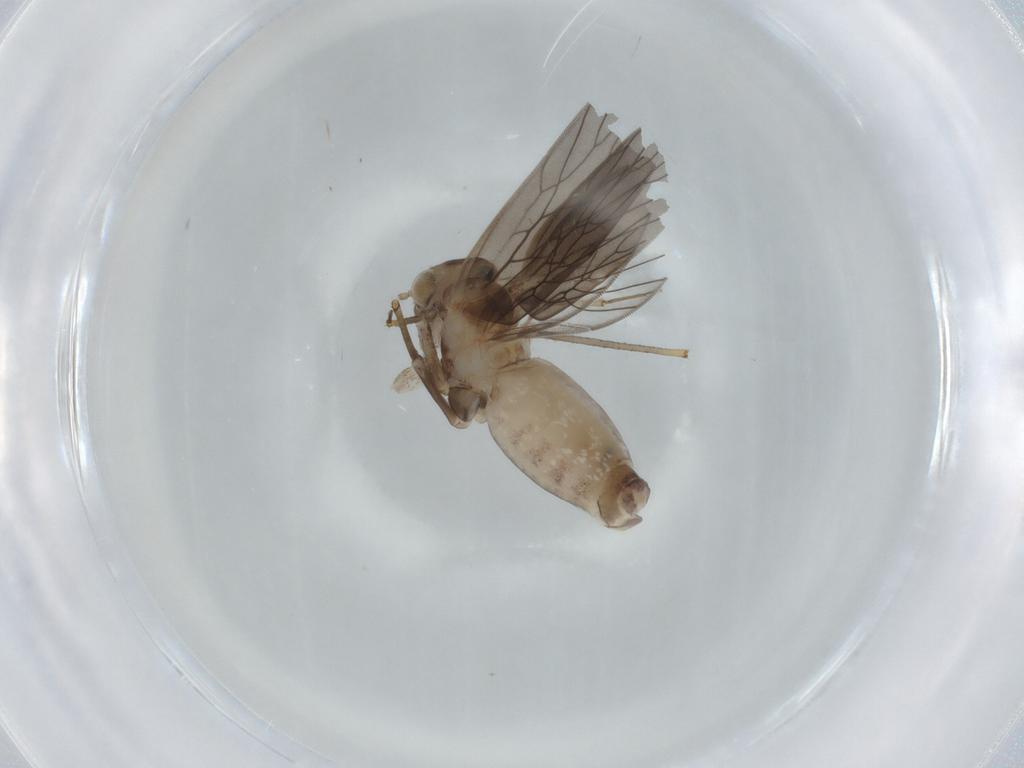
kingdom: Animalia
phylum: Arthropoda
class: Insecta
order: Psocodea
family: Lepidopsocidae
